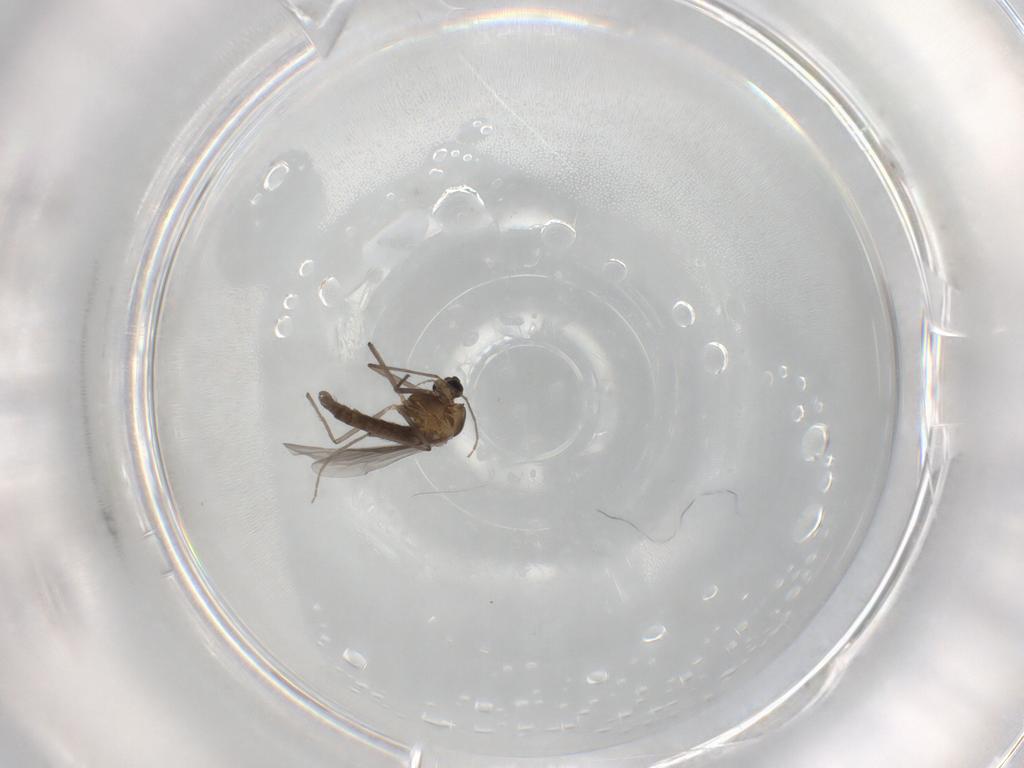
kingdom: Animalia
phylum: Arthropoda
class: Insecta
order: Diptera
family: Chironomidae
